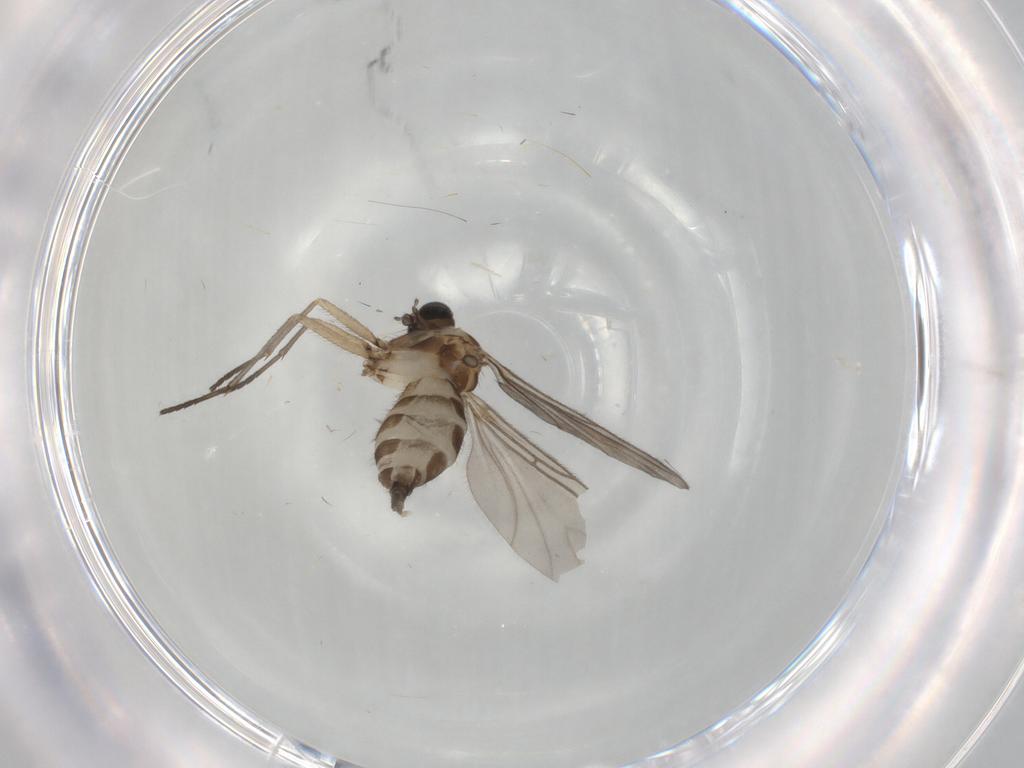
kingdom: Animalia
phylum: Arthropoda
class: Insecta
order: Diptera
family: Sciaridae
